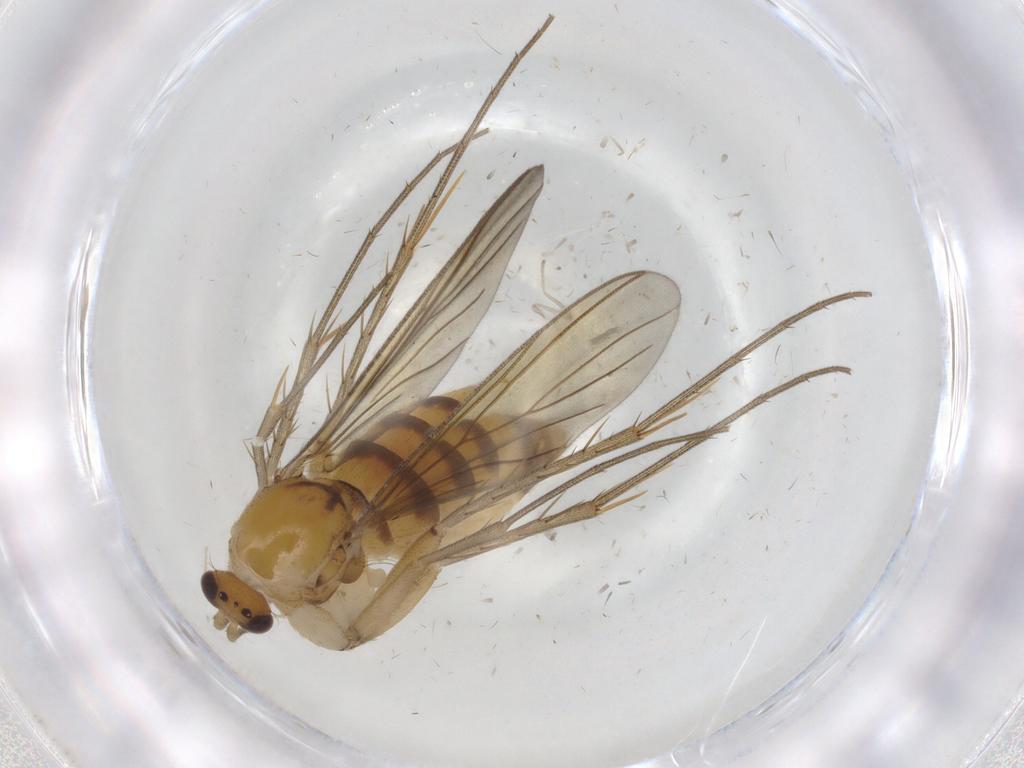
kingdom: Animalia
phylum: Arthropoda
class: Insecta
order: Diptera
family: Mycetophilidae
